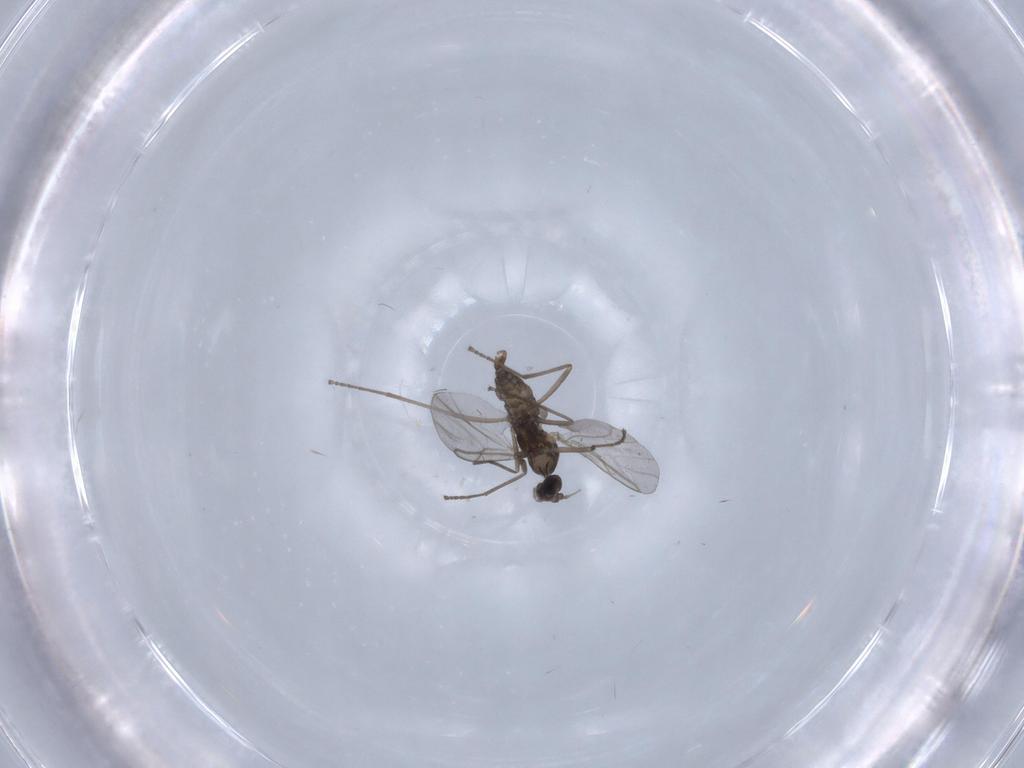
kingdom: Animalia
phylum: Arthropoda
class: Insecta
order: Diptera
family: Cecidomyiidae
